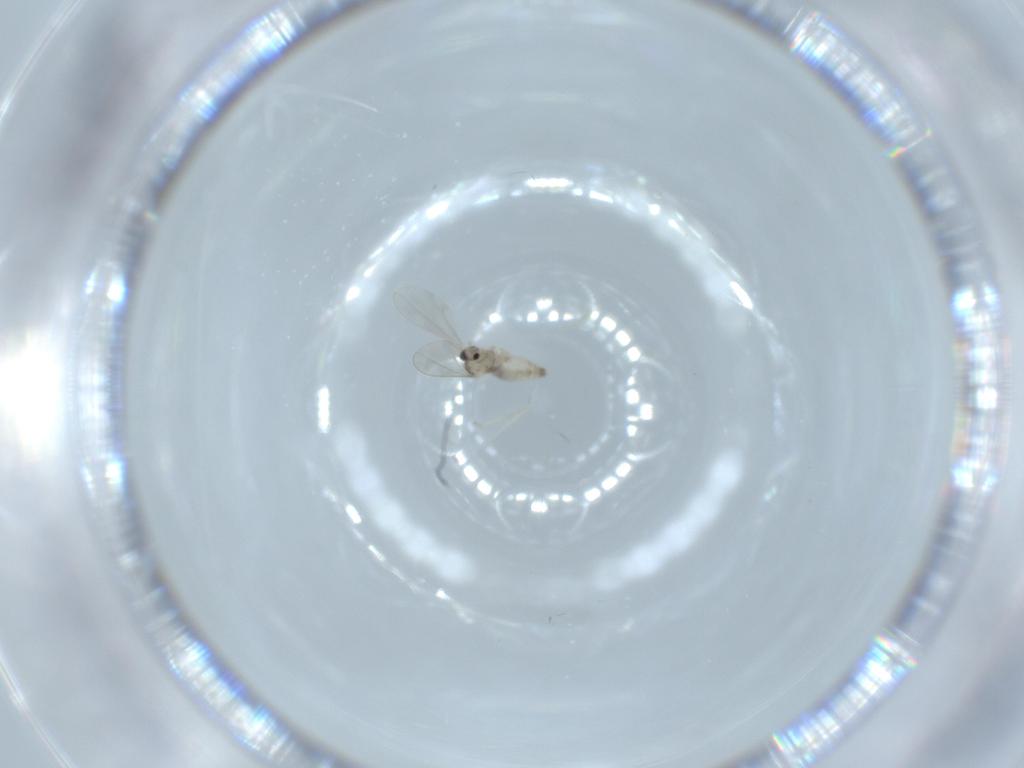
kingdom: Animalia
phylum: Arthropoda
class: Insecta
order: Diptera
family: Cecidomyiidae
